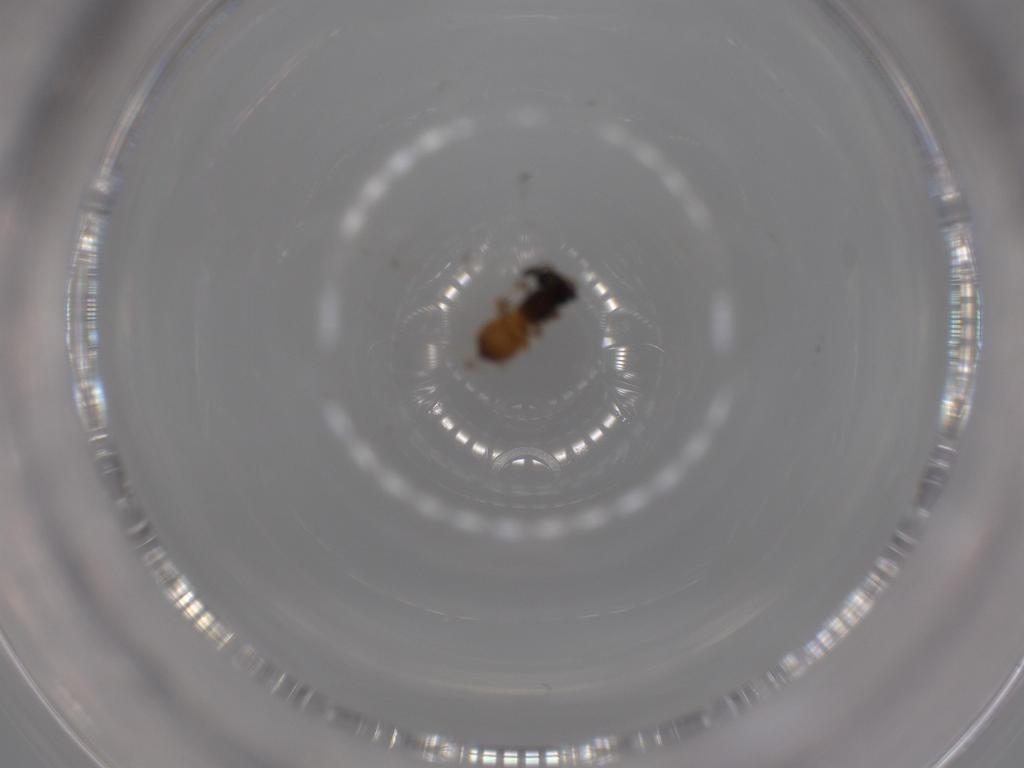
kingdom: Animalia
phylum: Arthropoda
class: Insecta
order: Hymenoptera
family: Scelionidae
